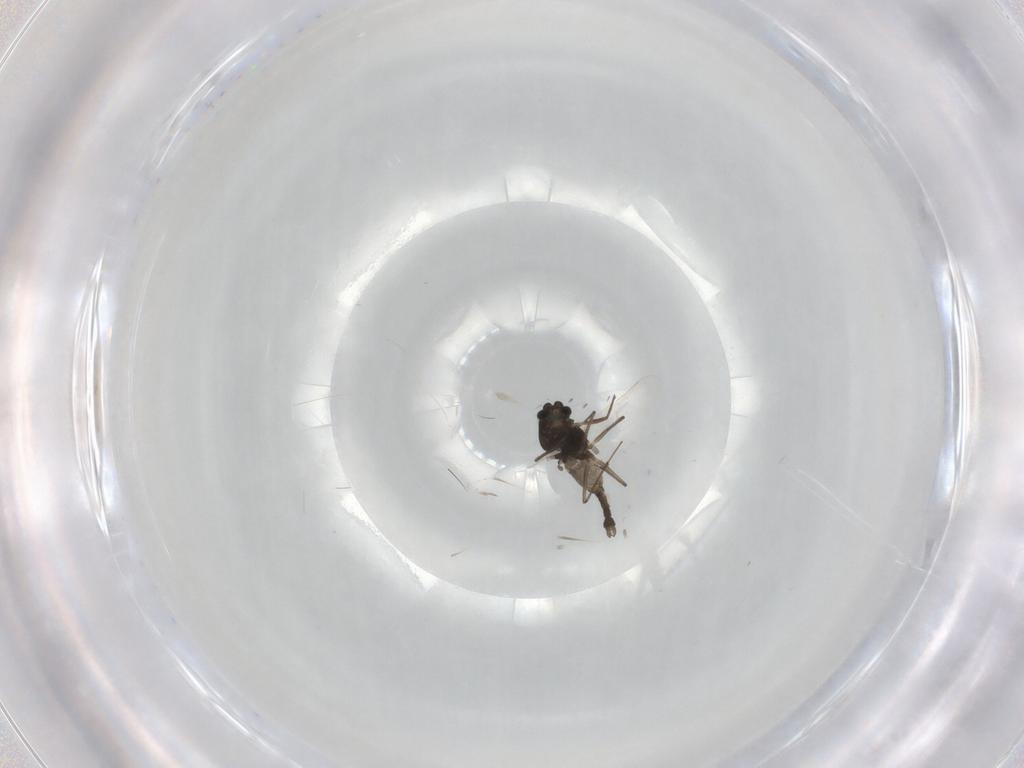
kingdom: Animalia
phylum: Arthropoda
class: Insecta
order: Diptera
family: Chironomidae
